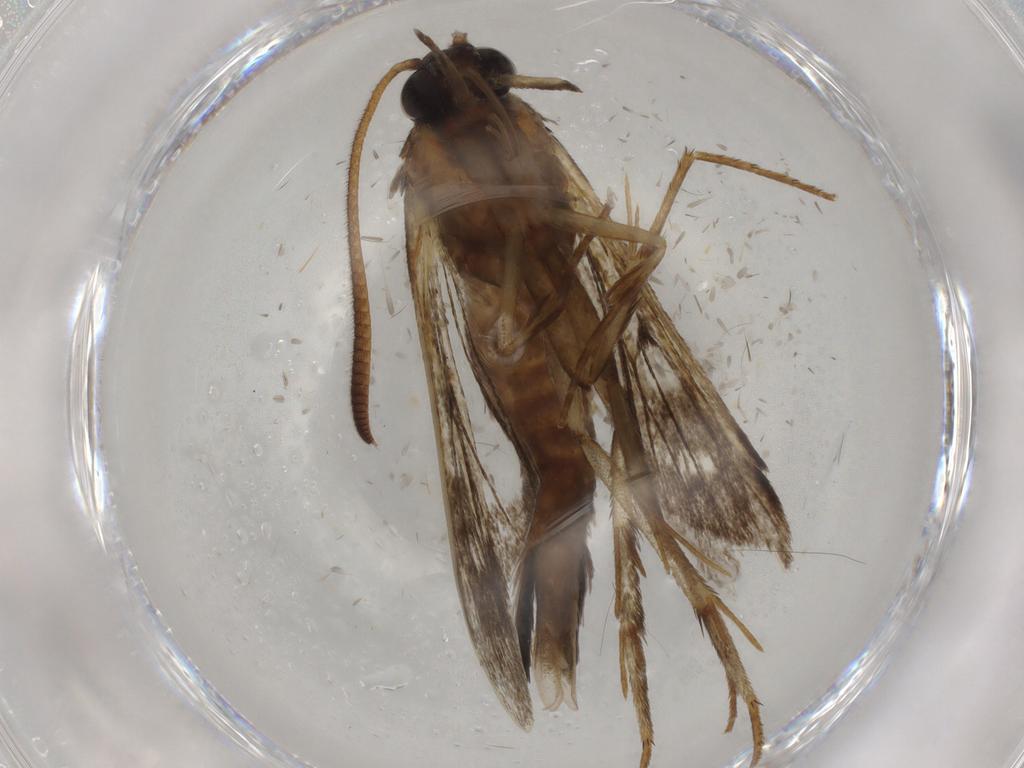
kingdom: Animalia
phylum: Arthropoda
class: Insecta
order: Lepidoptera
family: Sesiidae
